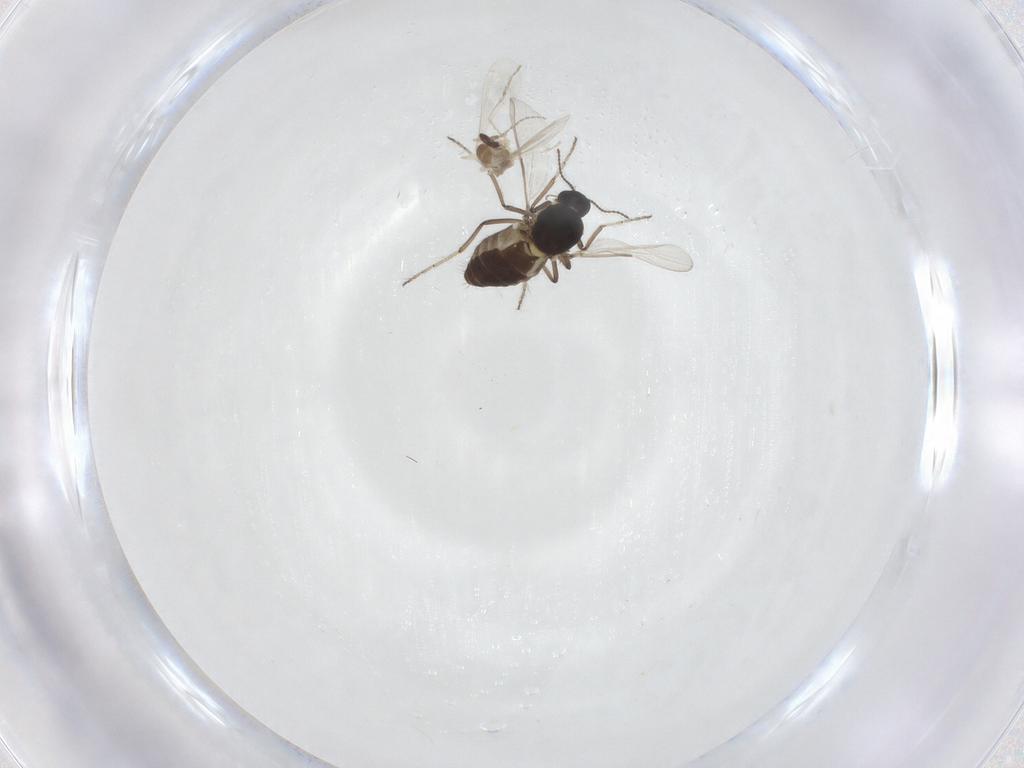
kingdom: Animalia
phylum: Arthropoda
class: Insecta
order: Diptera
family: Ceratopogonidae
